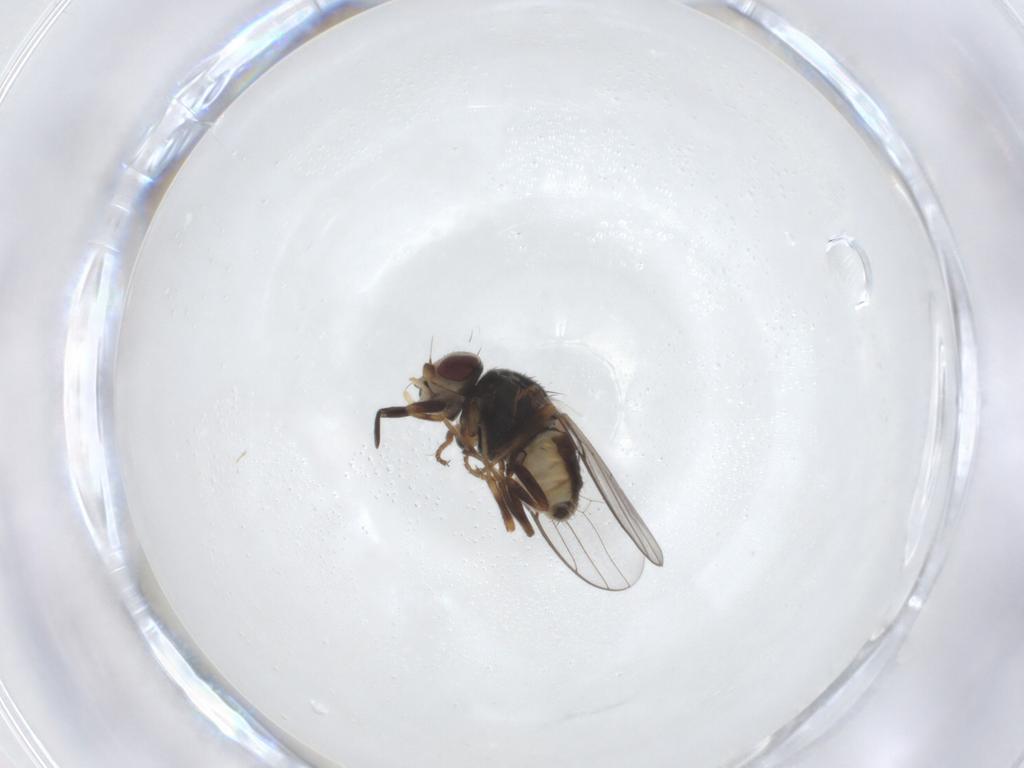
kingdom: Animalia
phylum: Arthropoda
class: Insecta
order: Diptera
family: Chloropidae
